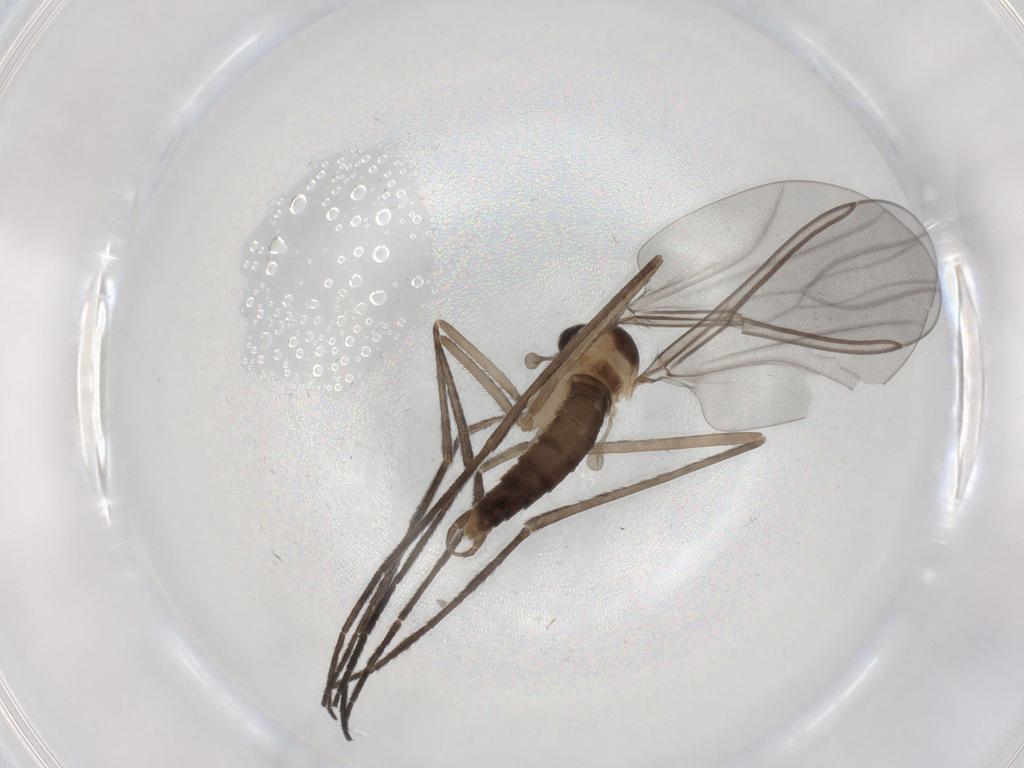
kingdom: Animalia
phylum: Arthropoda
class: Insecta
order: Diptera
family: Cecidomyiidae
